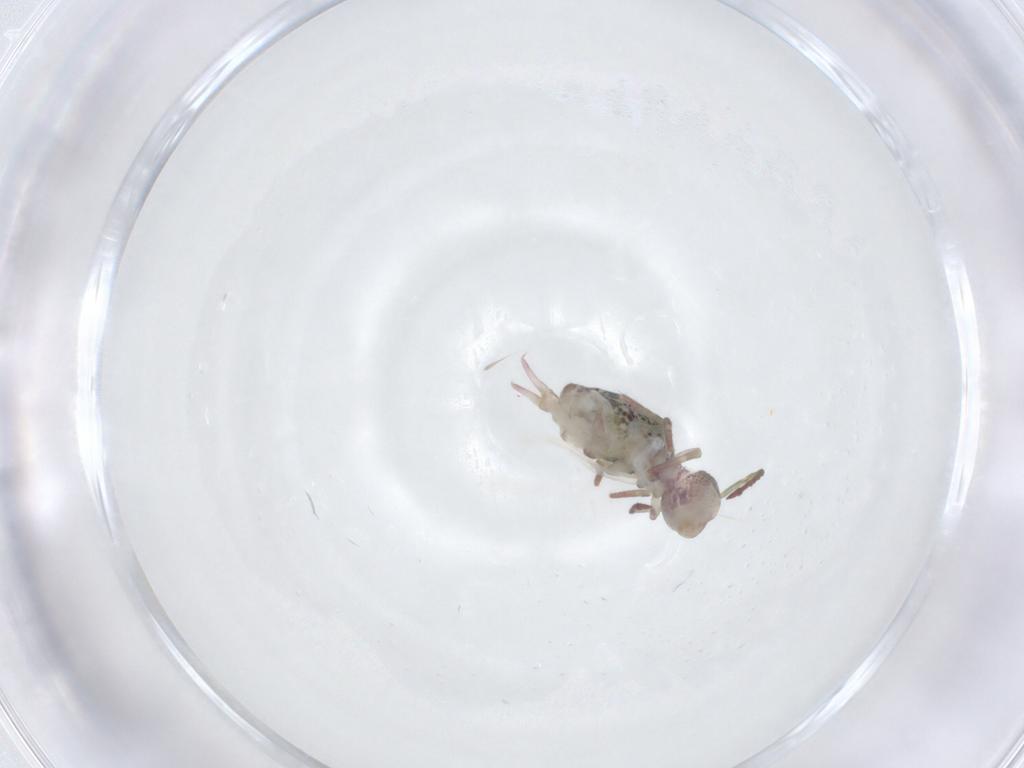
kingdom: Animalia
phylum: Arthropoda
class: Collembola
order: Symphypleona
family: Dicyrtomidae
